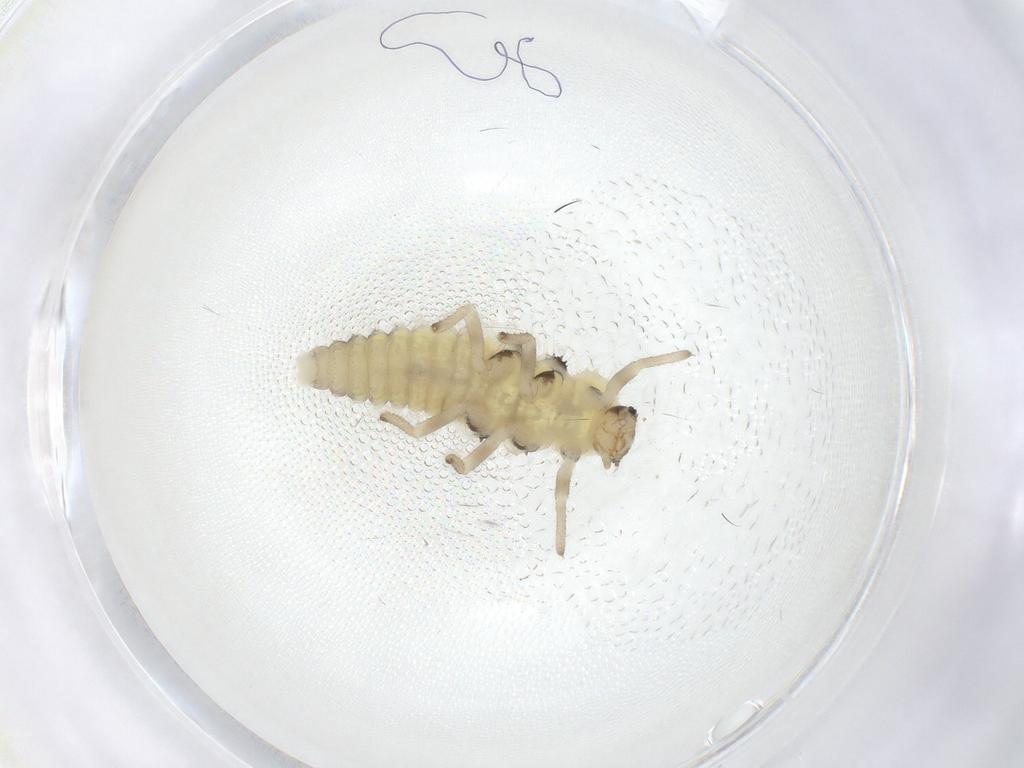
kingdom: Animalia
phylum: Arthropoda
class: Insecta
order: Coleoptera
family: Coccinellidae
